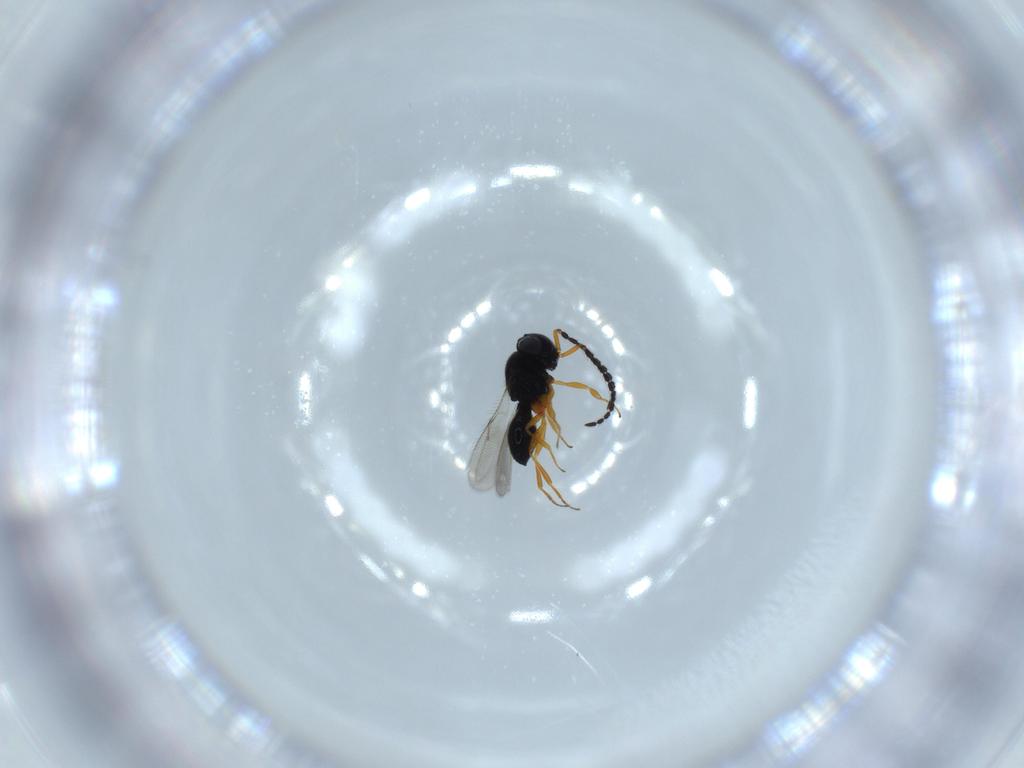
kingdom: Animalia
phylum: Arthropoda
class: Insecta
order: Hymenoptera
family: Scelionidae
